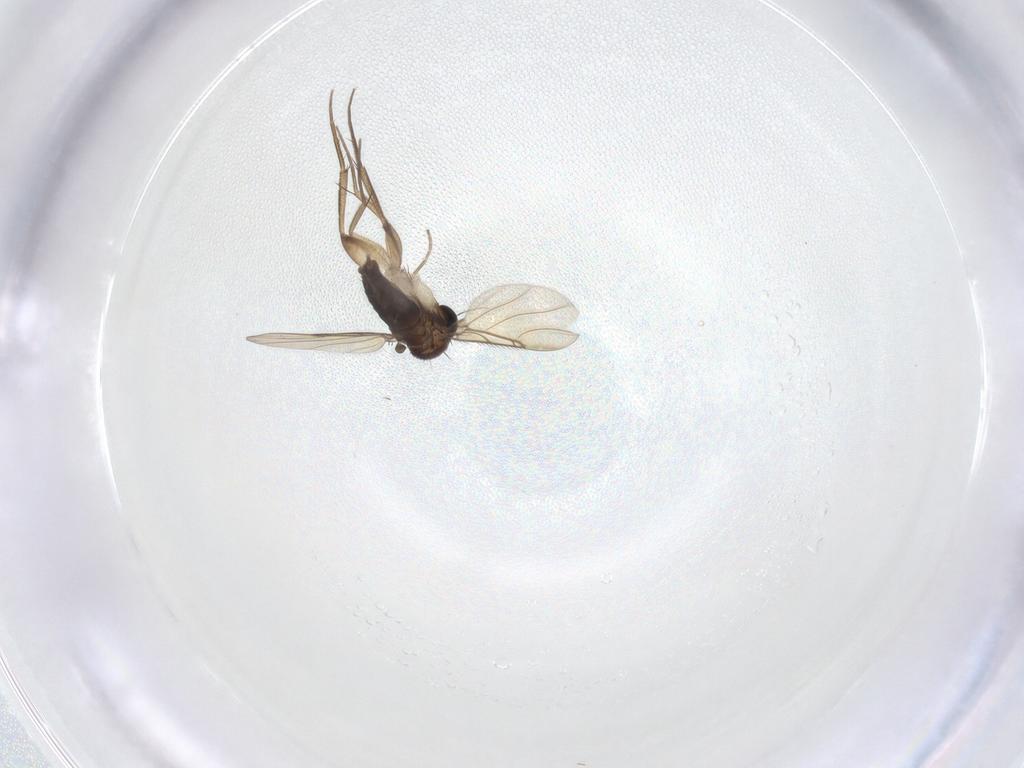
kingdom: Animalia
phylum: Arthropoda
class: Insecta
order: Diptera
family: Phoridae
